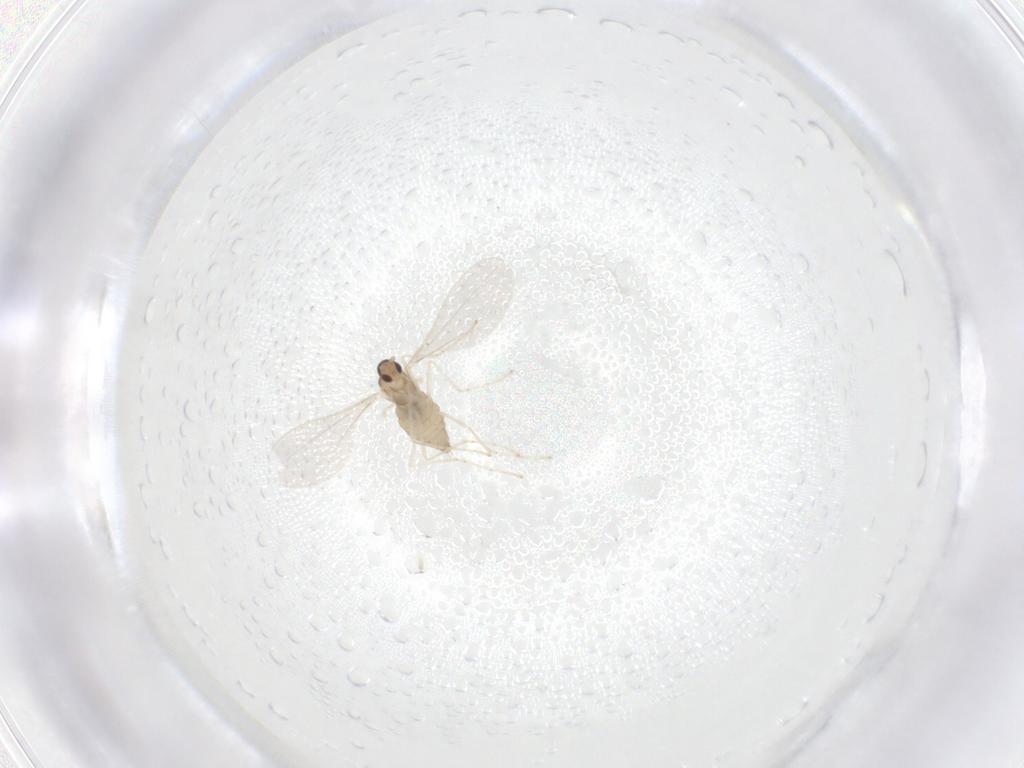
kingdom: Animalia
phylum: Arthropoda
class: Insecta
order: Diptera
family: Cecidomyiidae
